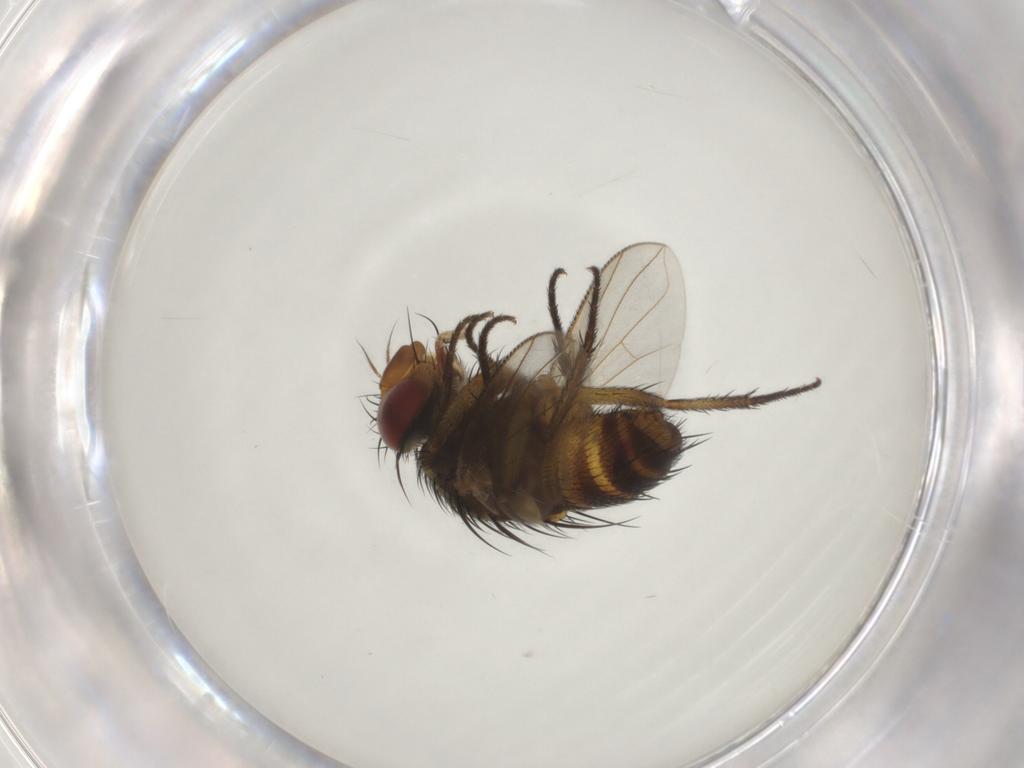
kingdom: Animalia
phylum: Arthropoda
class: Insecta
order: Diptera
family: Tachinidae
